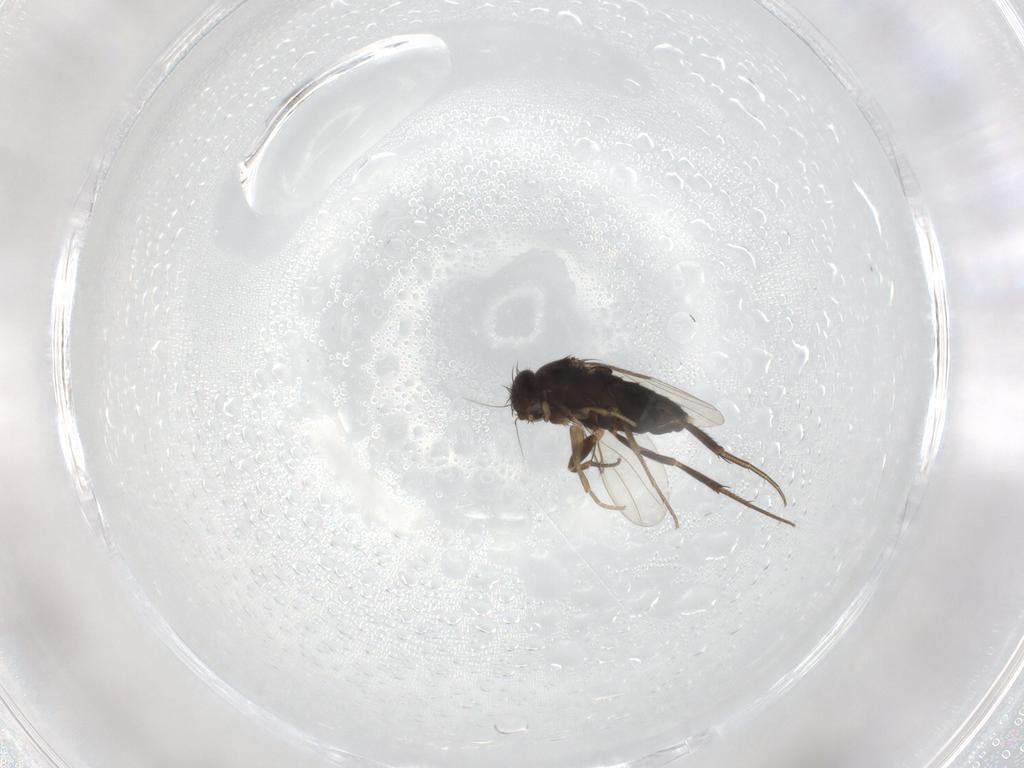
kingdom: Animalia
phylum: Arthropoda
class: Insecta
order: Diptera
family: Phoridae
